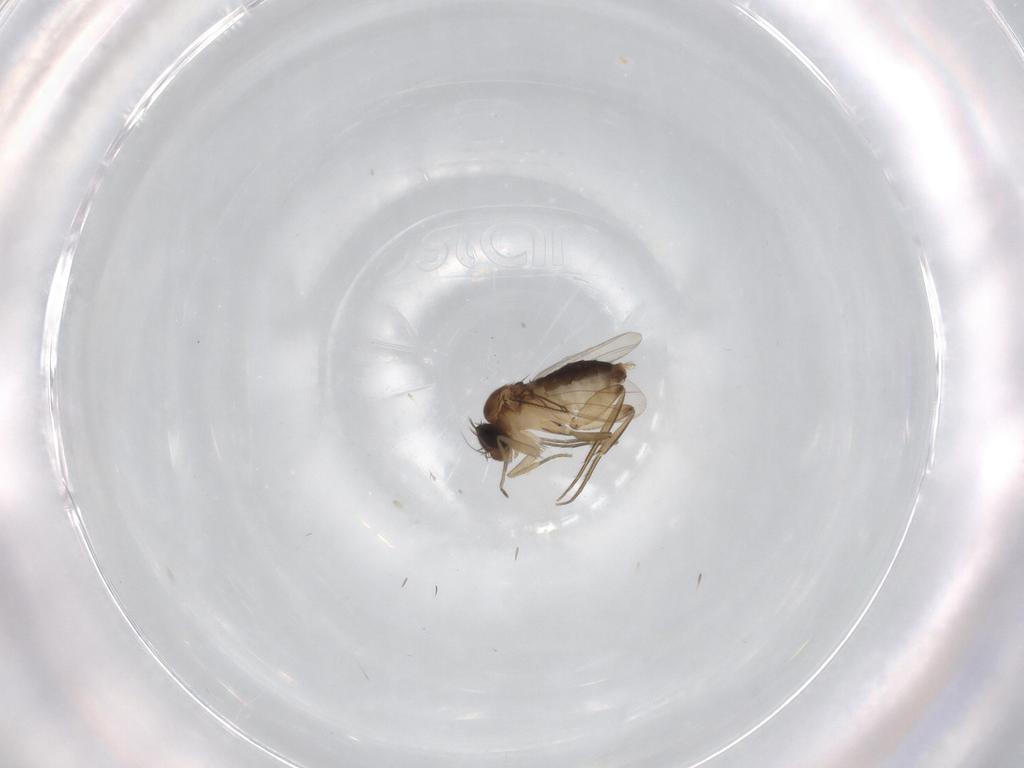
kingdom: Animalia
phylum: Arthropoda
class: Insecta
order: Diptera
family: Phoridae
